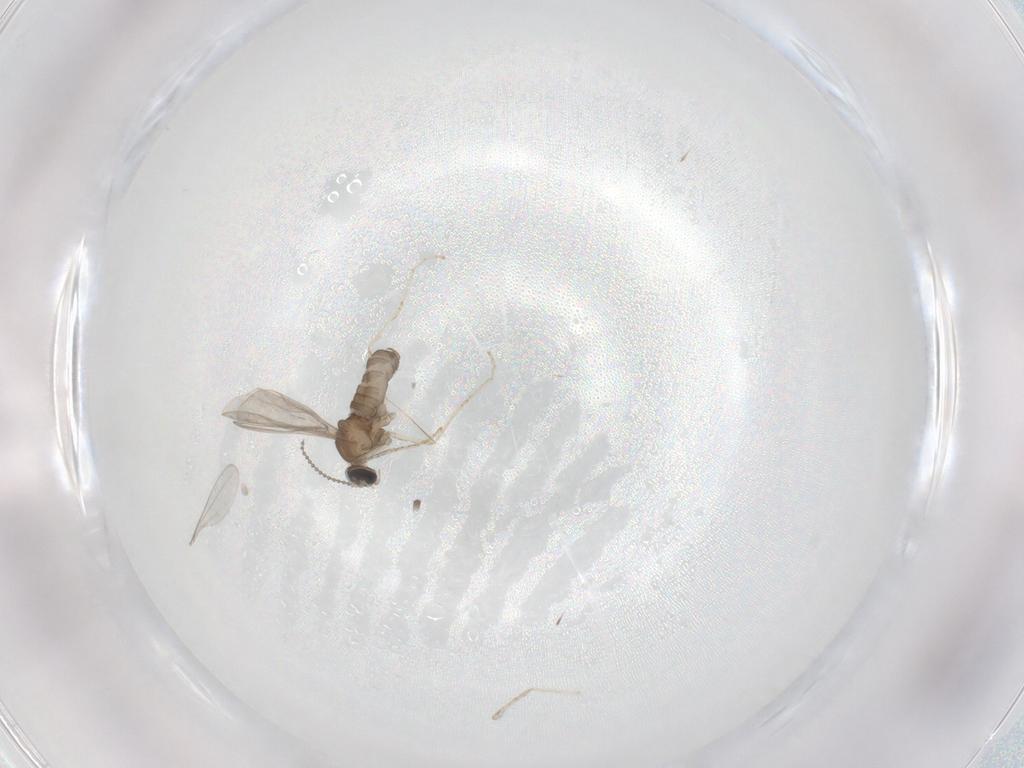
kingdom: Animalia
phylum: Arthropoda
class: Insecta
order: Diptera
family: Cecidomyiidae
